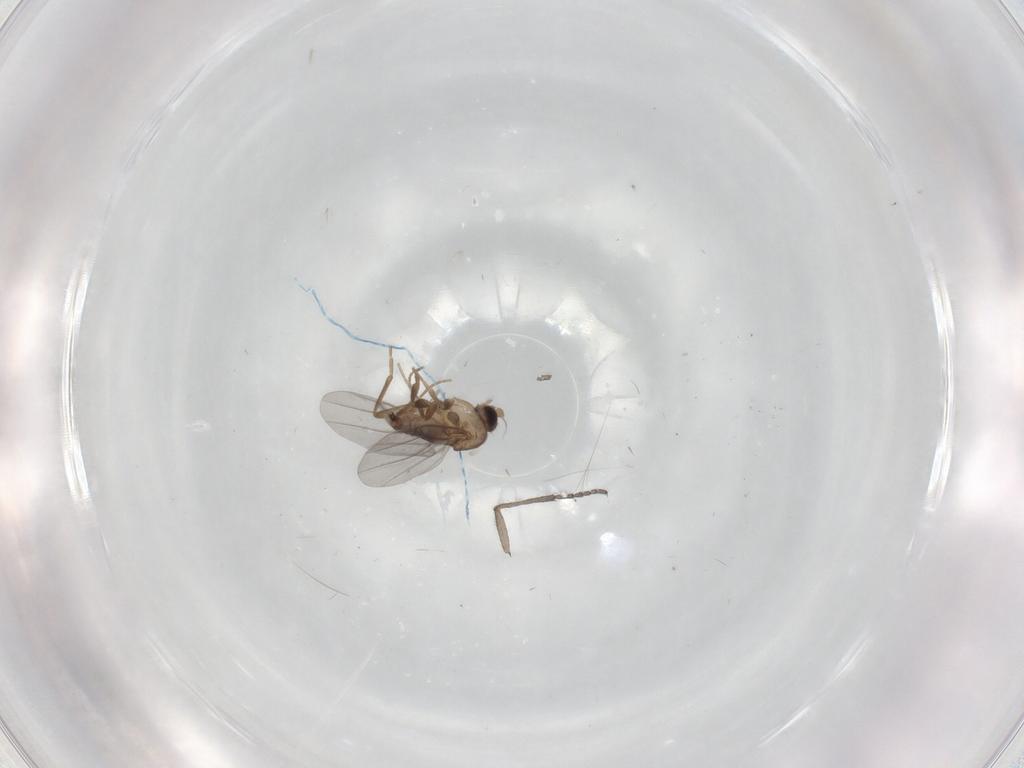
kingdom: Animalia
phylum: Arthropoda
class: Insecta
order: Diptera
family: Sciaridae
